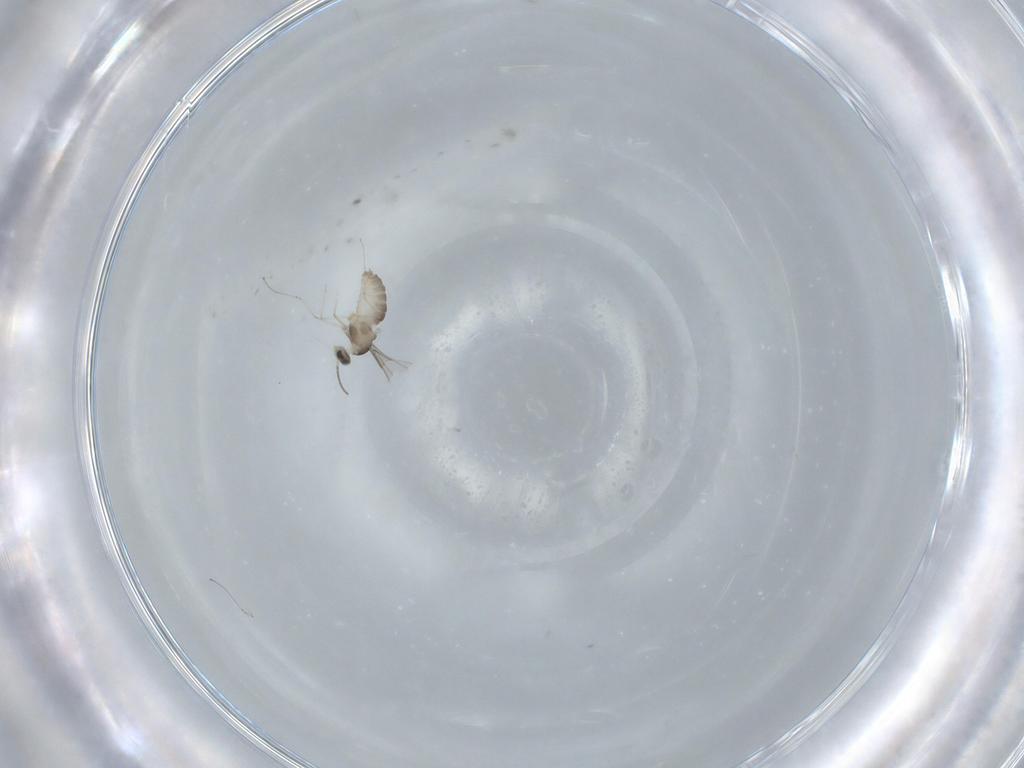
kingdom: Animalia
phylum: Arthropoda
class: Insecta
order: Diptera
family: Cecidomyiidae
